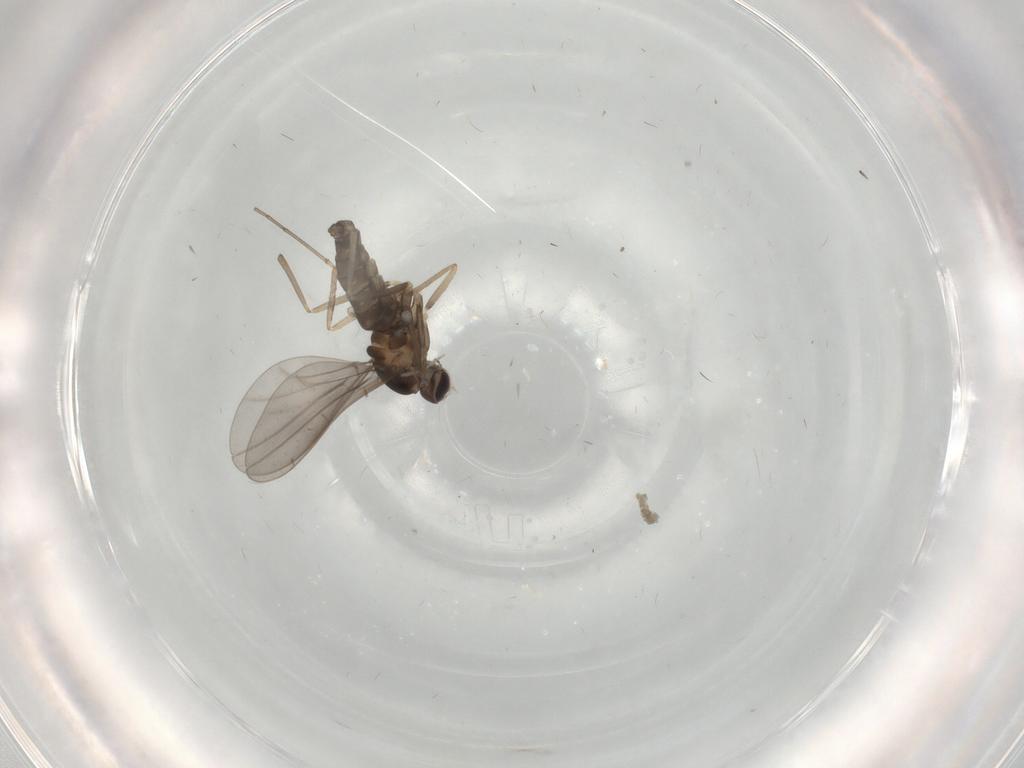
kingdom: Animalia
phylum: Arthropoda
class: Insecta
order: Diptera
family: Cecidomyiidae
